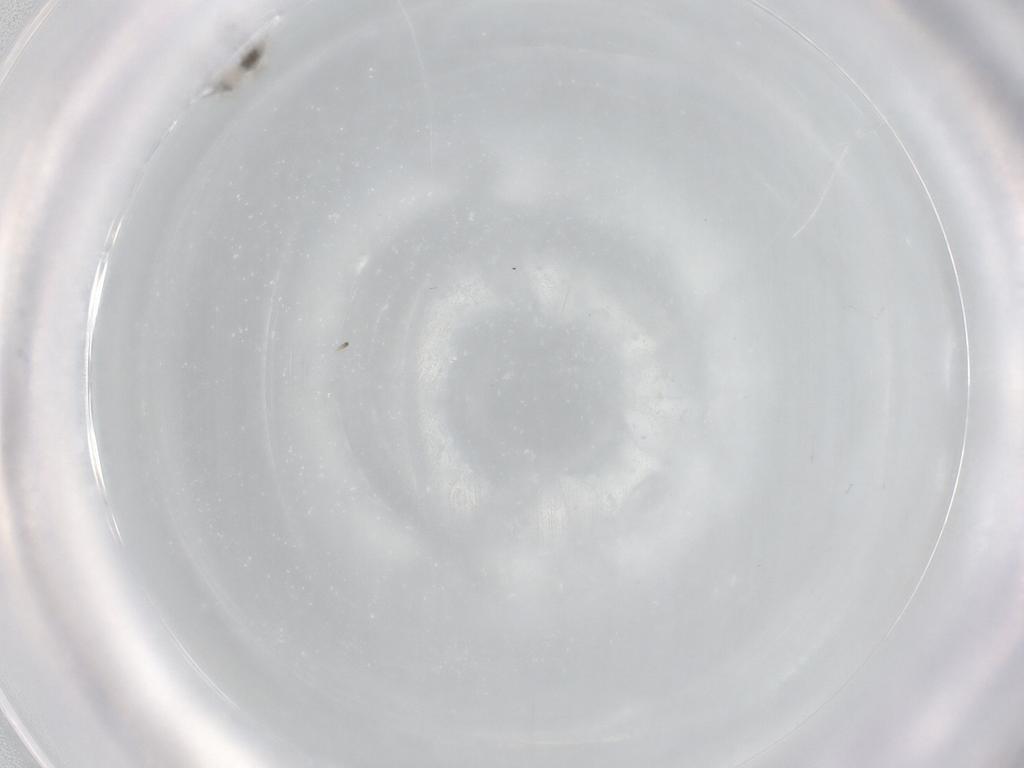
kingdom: Animalia
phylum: Arthropoda
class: Insecta
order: Diptera
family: Cecidomyiidae
